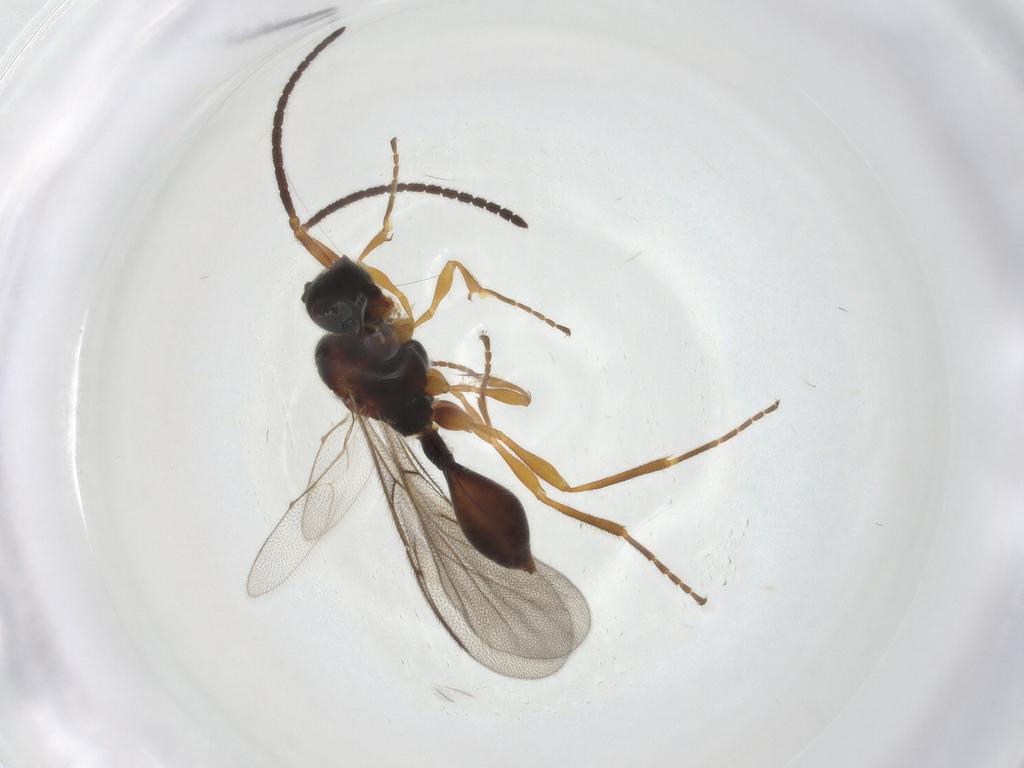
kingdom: Animalia
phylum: Arthropoda
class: Insecta
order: Hymenoptera
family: Diapriidae
